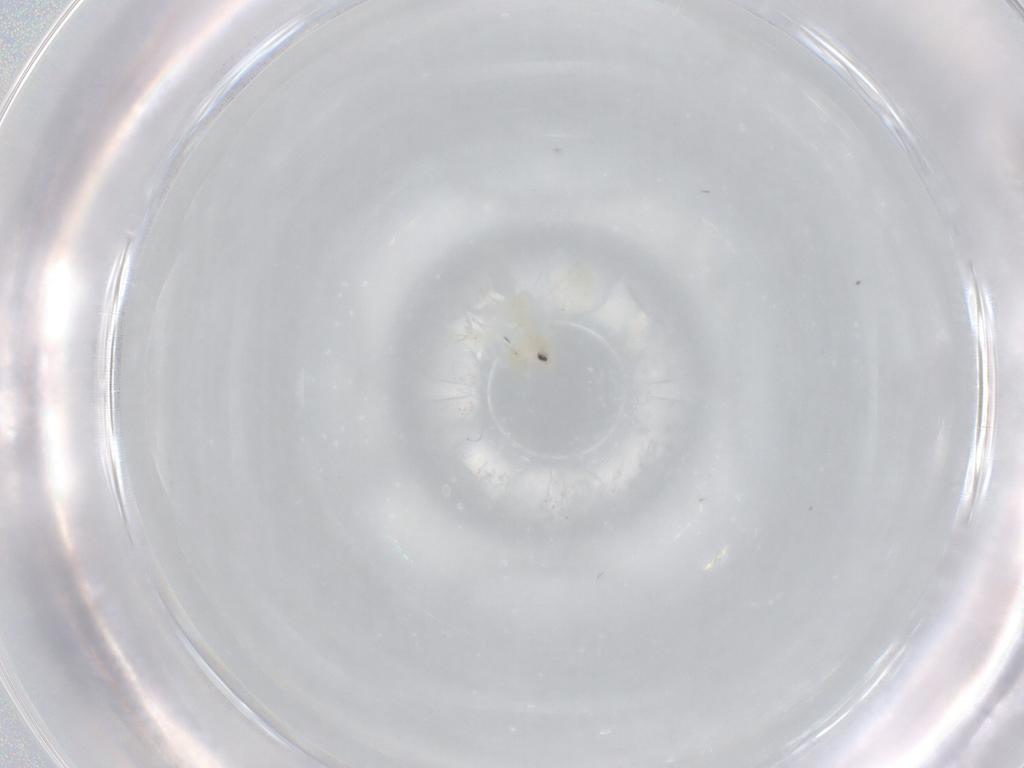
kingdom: Animalia
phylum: Arthropoda
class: Insecta
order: Hemiptera
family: Aleyrodidae
